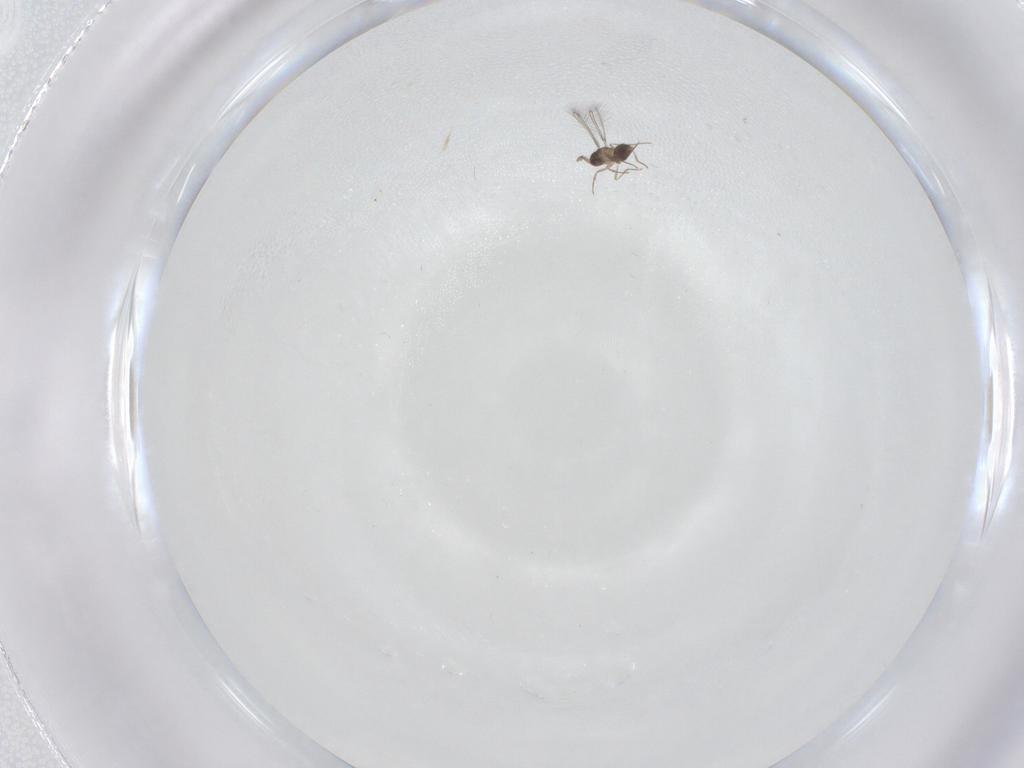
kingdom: Animalia
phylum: Arthropoda
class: Insecta
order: Hymenoptera
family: Mymaridae
